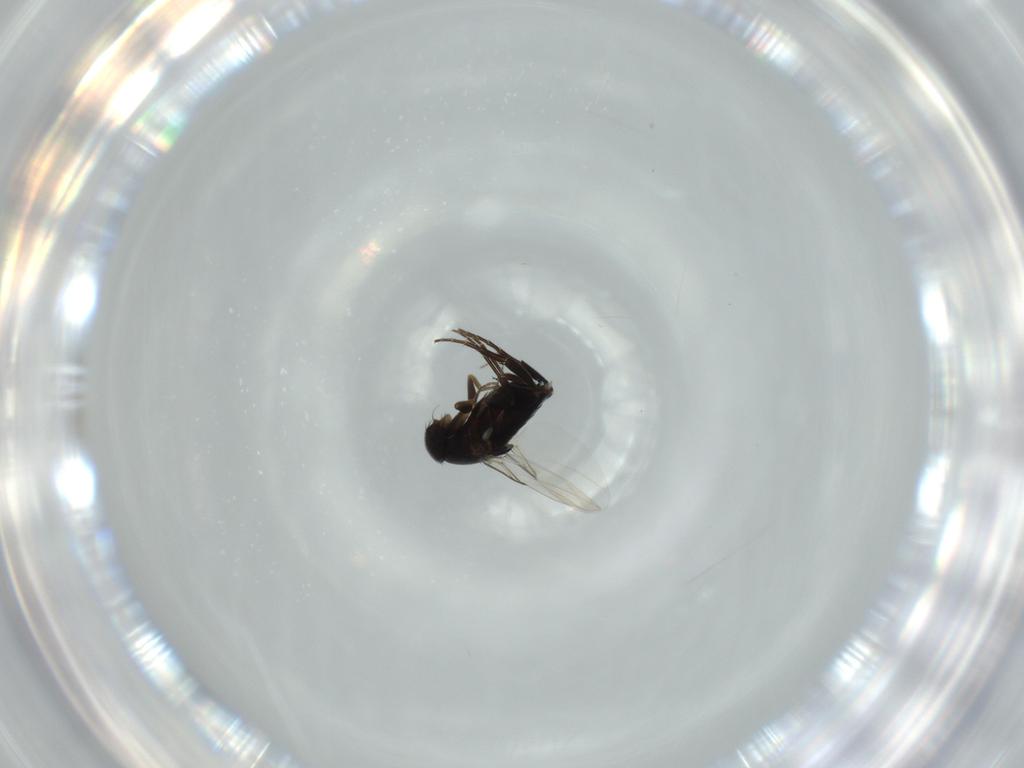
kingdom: Animalia
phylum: Arthropoda
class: Insecta
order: Diptera
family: Phoridae
